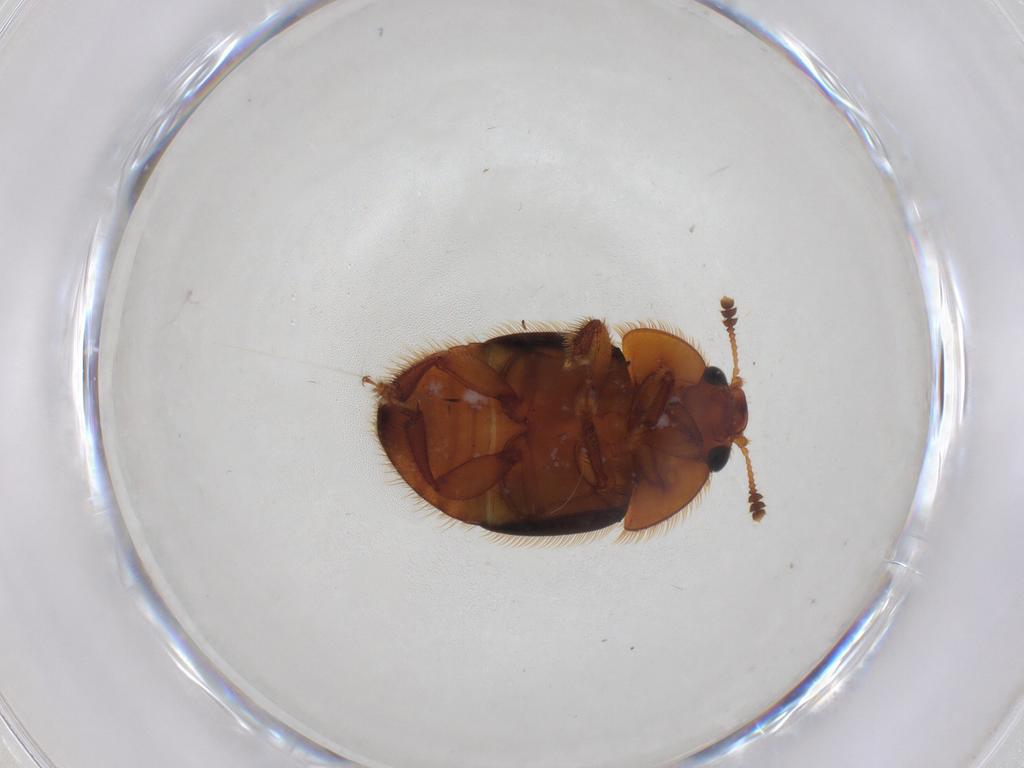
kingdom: Animalia
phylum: Arthropoda
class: Insecta
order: Coleoptera
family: Nitidulidae
